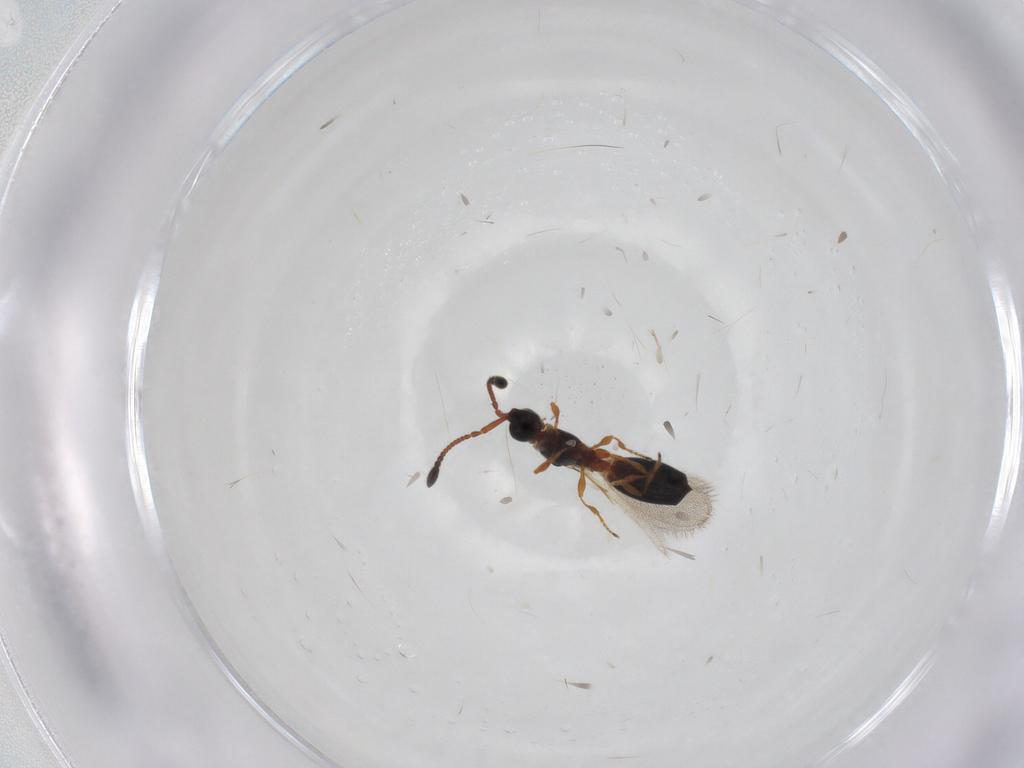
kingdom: Animalia
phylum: Arthropoda
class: Insecta
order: Hymenoptera
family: Diapriidae
